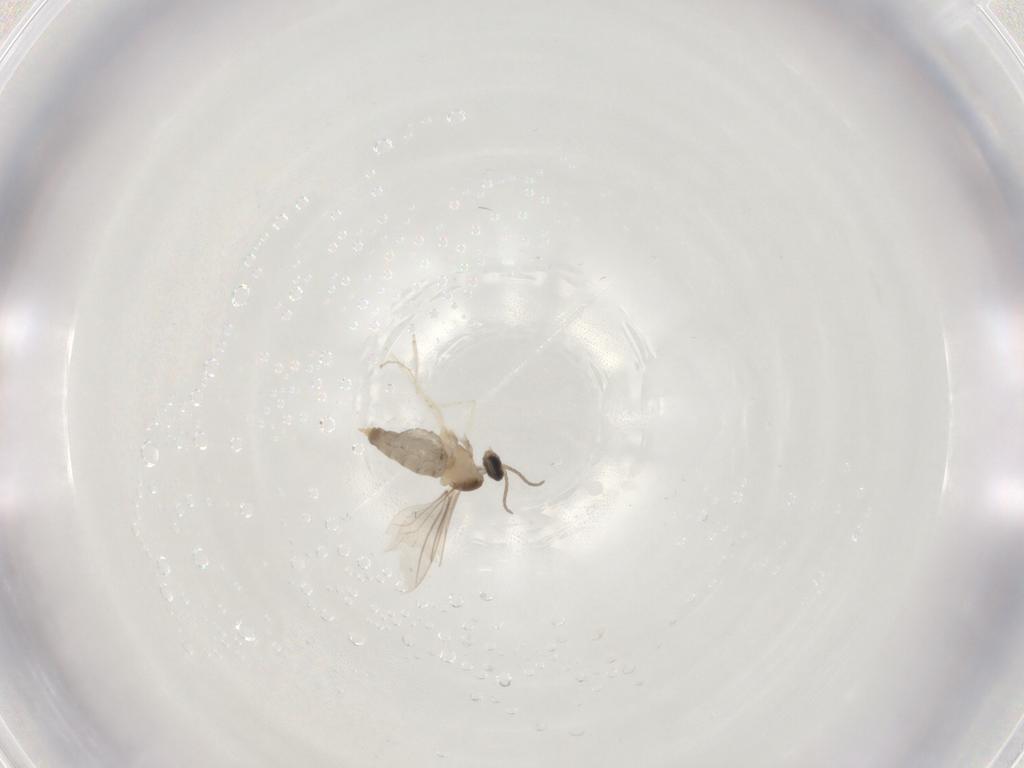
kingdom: Animalia
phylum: Arthropoda
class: Insecta
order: Diptera
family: Cecidomyiidae
